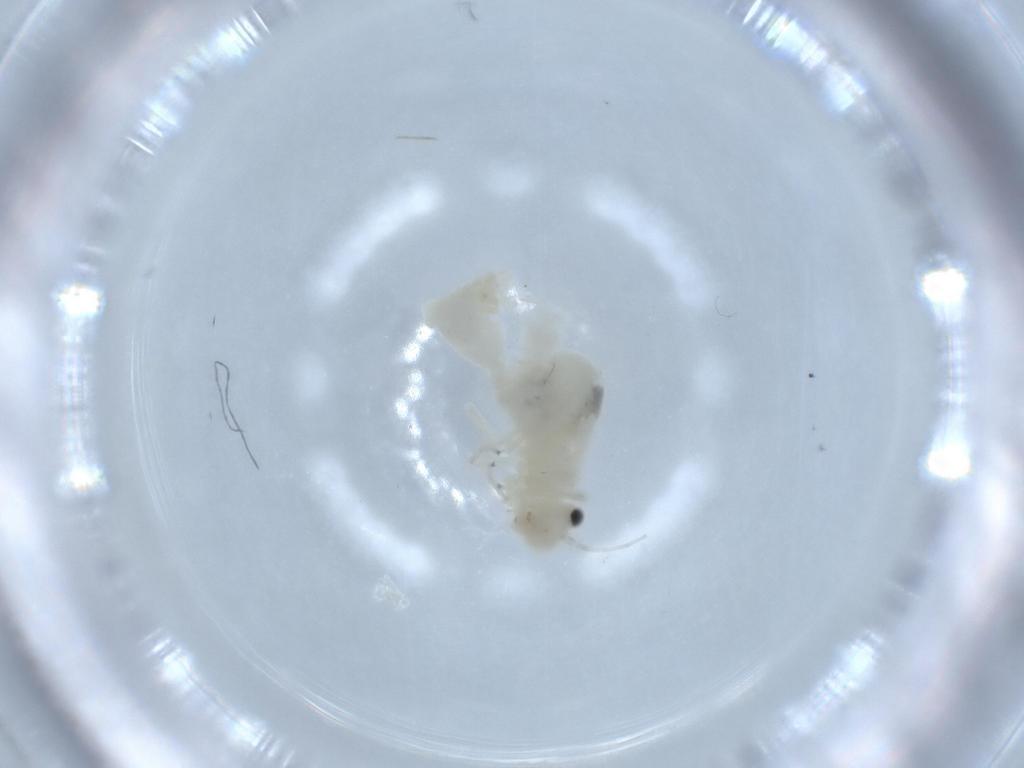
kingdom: Animalia
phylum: Arthropoda
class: Insecta
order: Psocodea
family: Caeciliusidae
